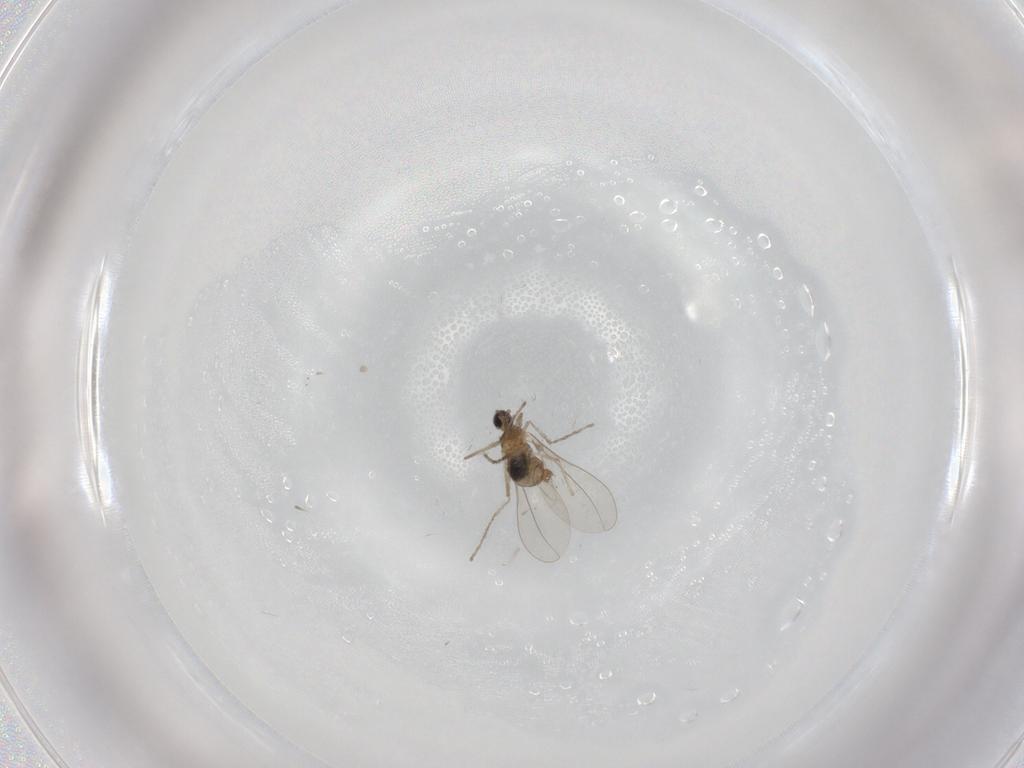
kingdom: Animalia
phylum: Arthropoda
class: Insecta
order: Diptera
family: Cecidomyiidae
